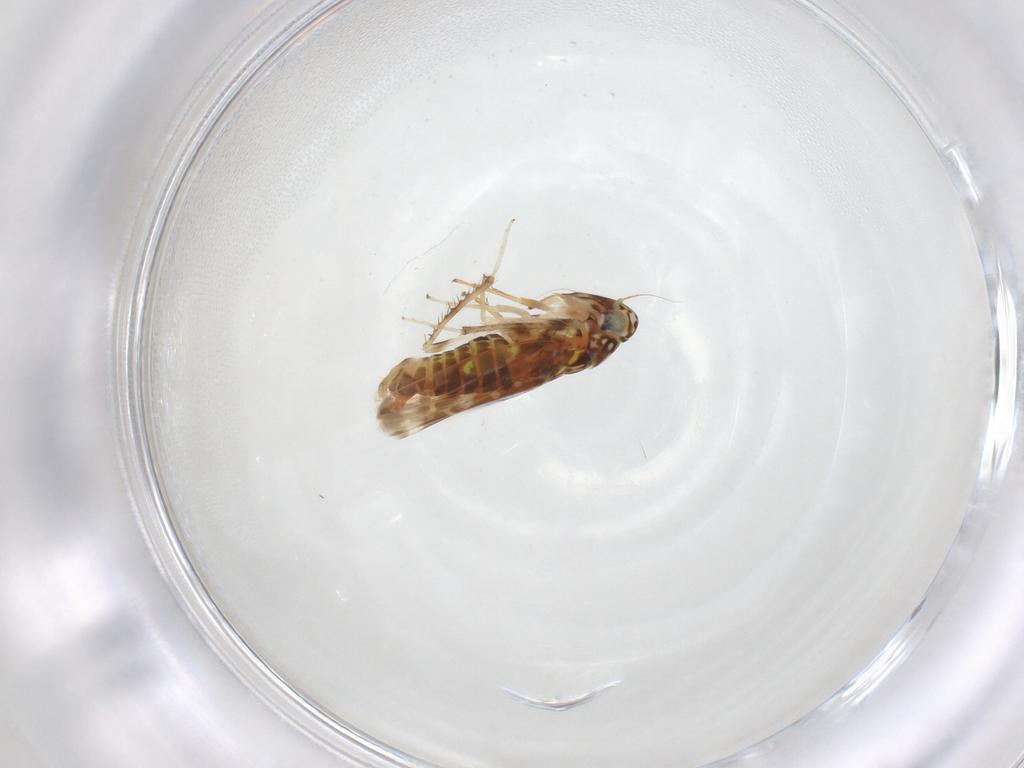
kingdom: Animalia
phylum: Arthropoda
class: Insecta
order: Hemiptera
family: Cicadellidae
